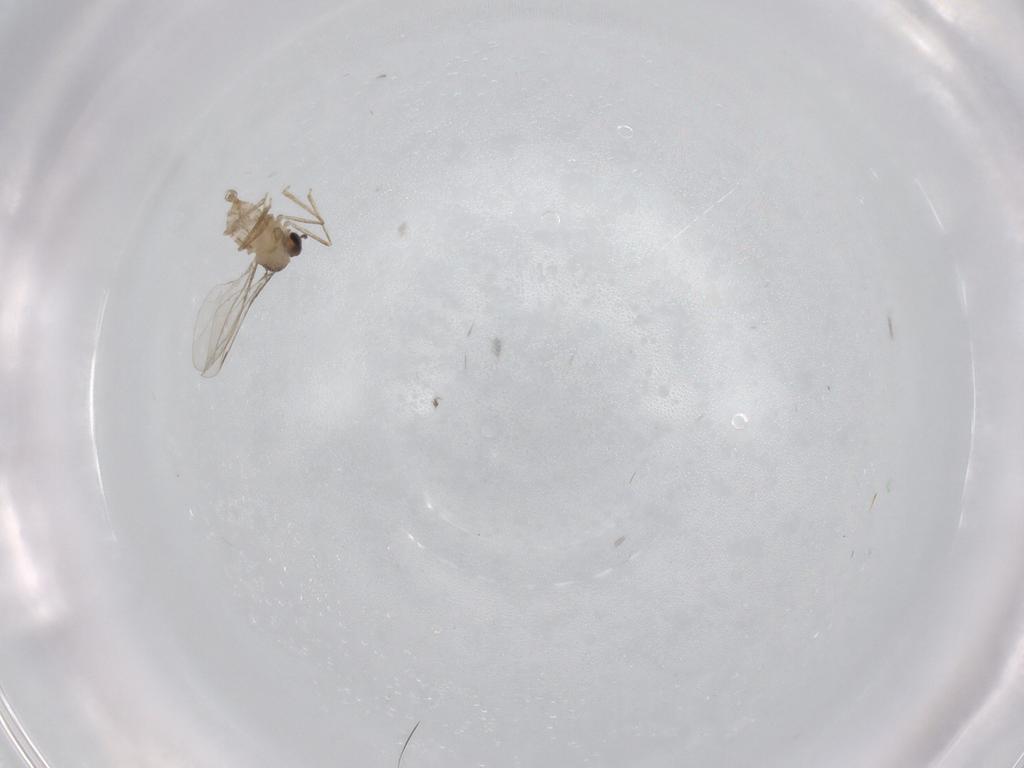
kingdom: Animalia
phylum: Arthropoda
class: Insecta
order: Diptera
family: Cecidomyiidae
